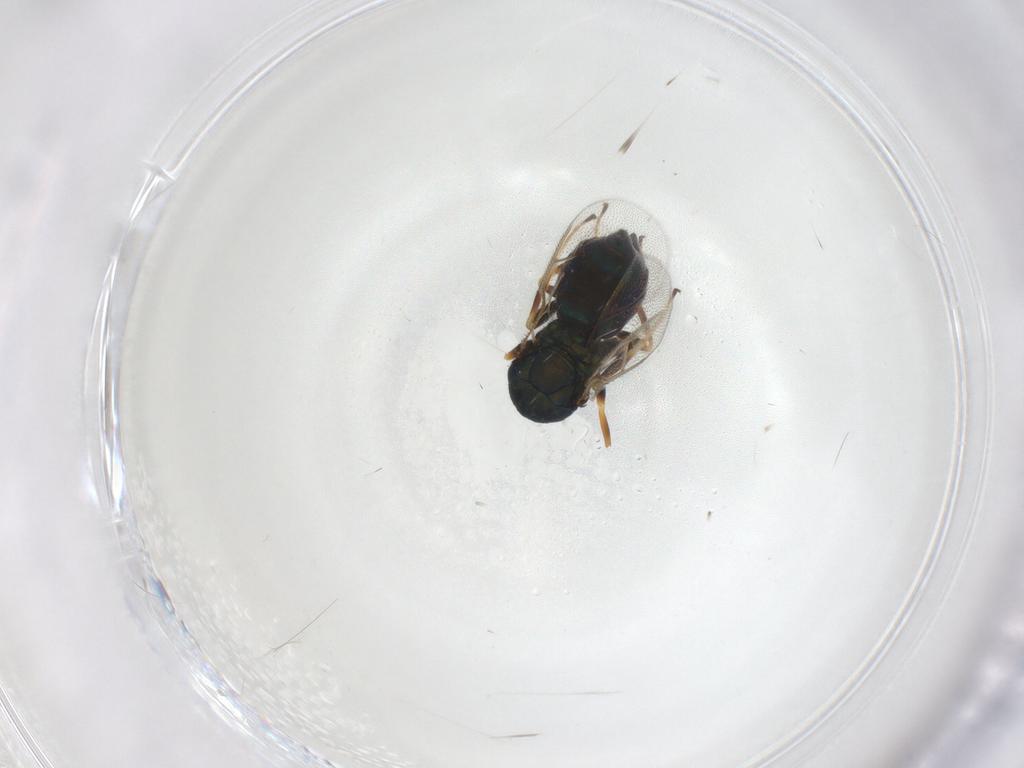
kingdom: Animalia
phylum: Arthropoda
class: Insecta
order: Hymenoptera
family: Pteromalidae
